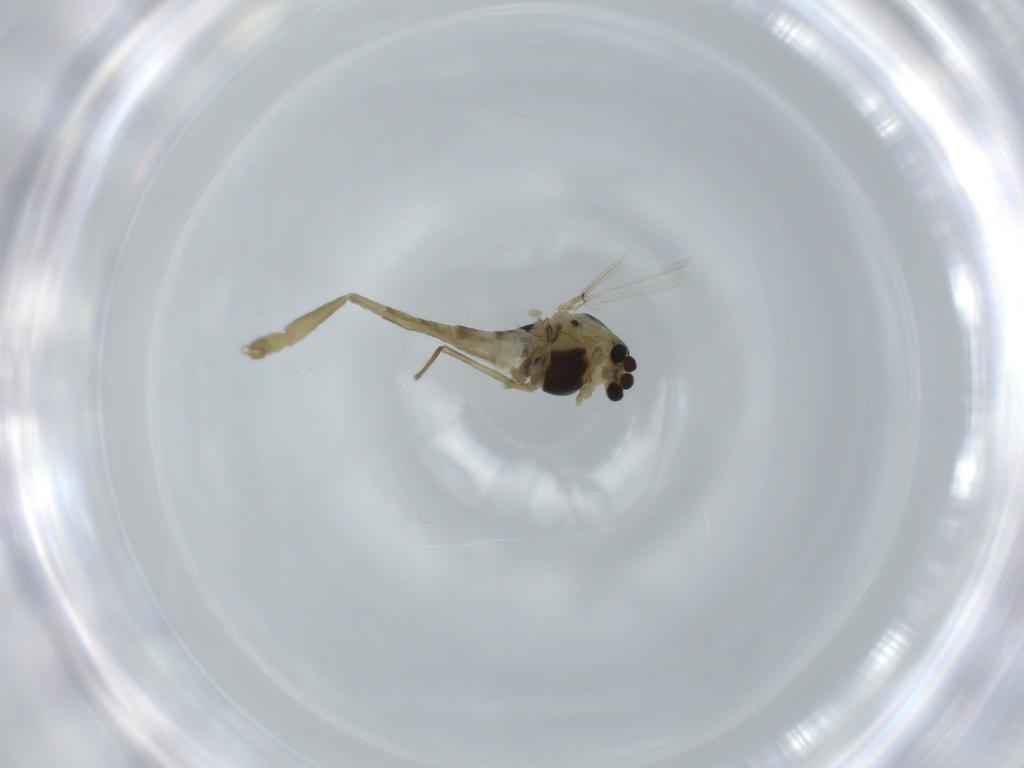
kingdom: Animalia
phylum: Arthropoda
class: Insecta
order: Diptera
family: Chironomidae
